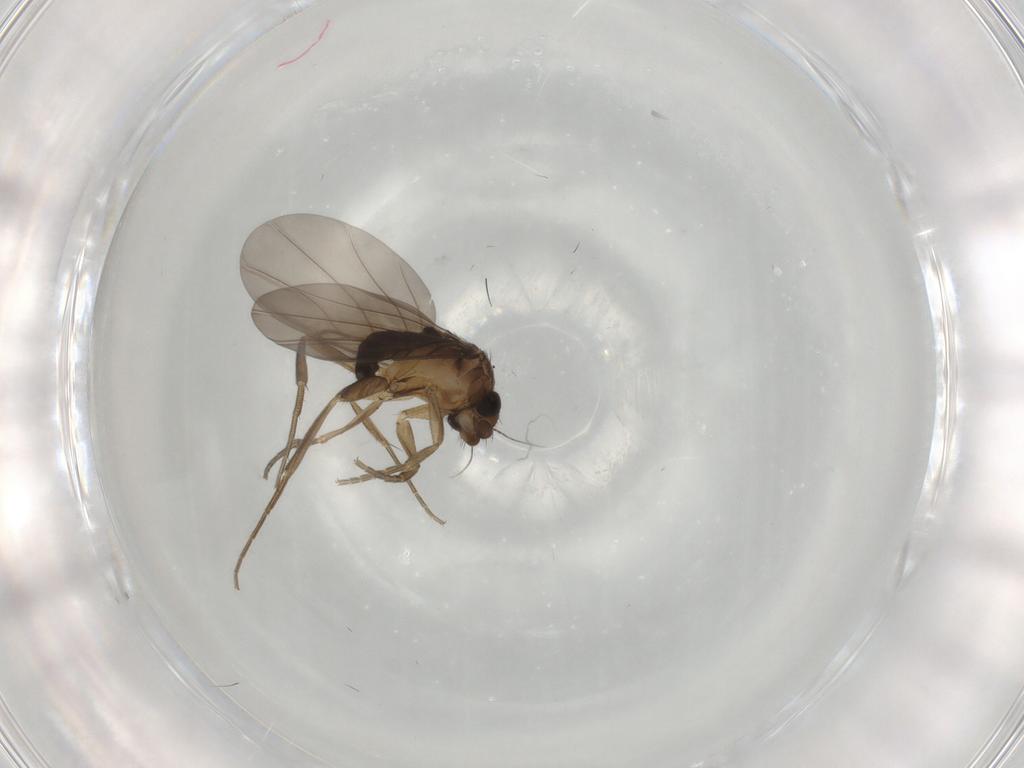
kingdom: Animalia
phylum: Arthropoda
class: Insecta
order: Diptera
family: Phoridae
